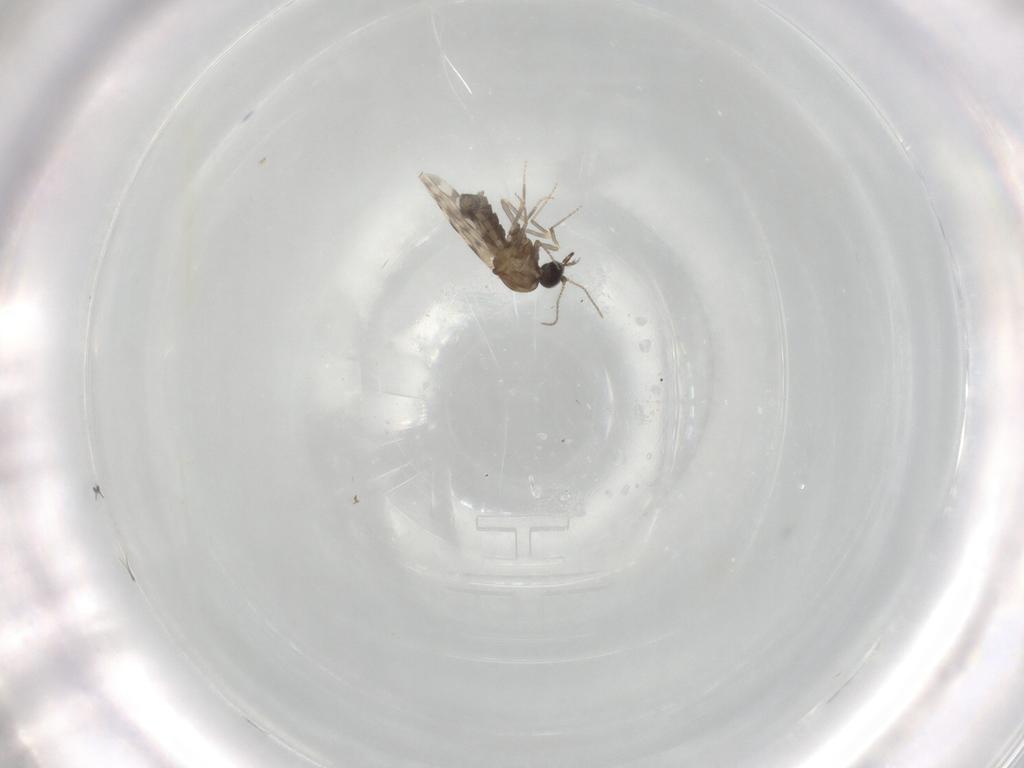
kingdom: Animalia
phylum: Arthropoda
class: Insecta
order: Diptera
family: Ceratopogonidae
